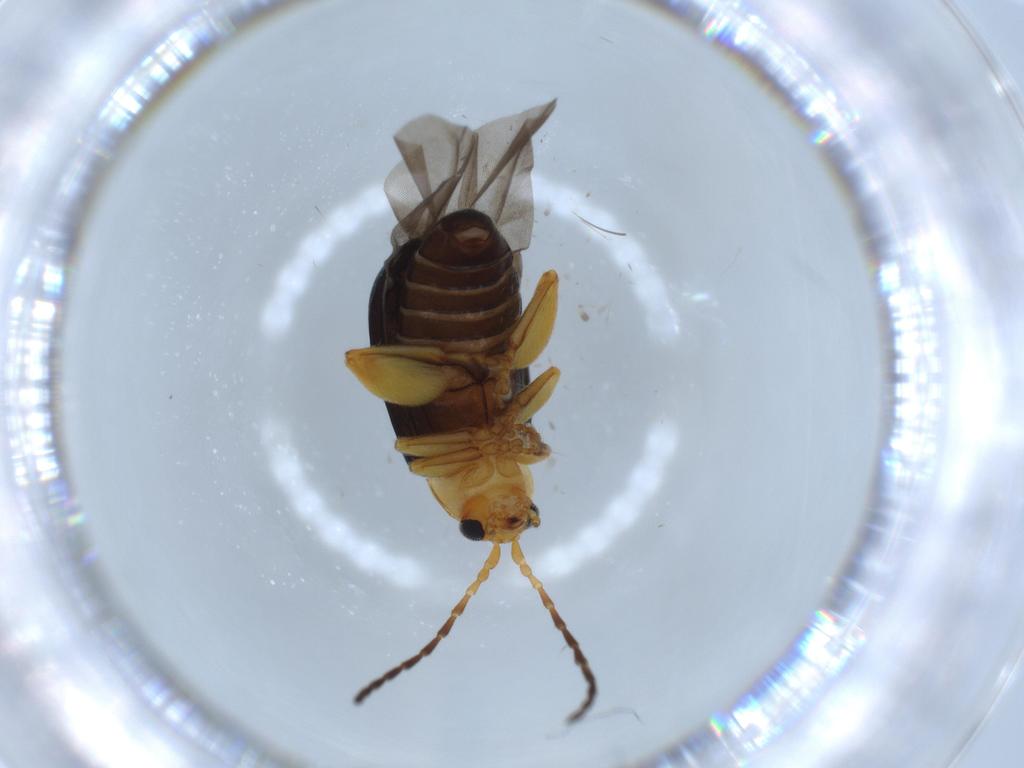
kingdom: Animalia
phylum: Arthropoda
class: Insecta
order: Coleoptera
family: Chrysomelidae
